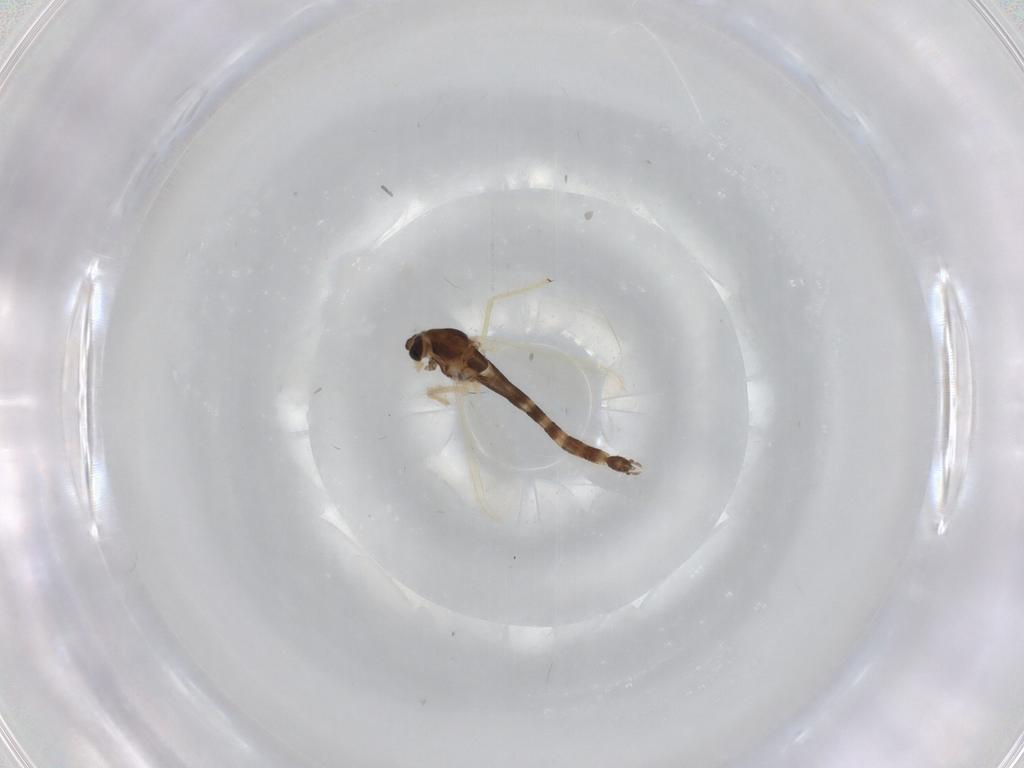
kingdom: Animalia
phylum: Arthropoda
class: Insecta
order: Diptera
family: Chironomidae
